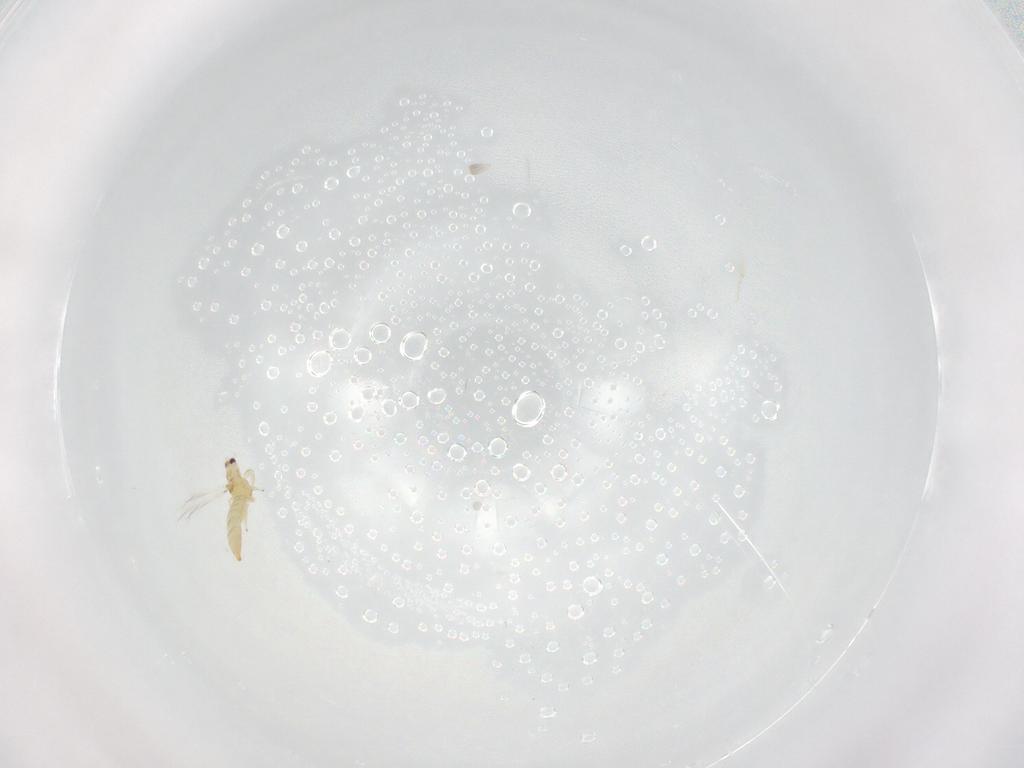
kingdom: Animalia
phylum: Arthropoda
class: Insecta
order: Thysanoptera
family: Thripidae
